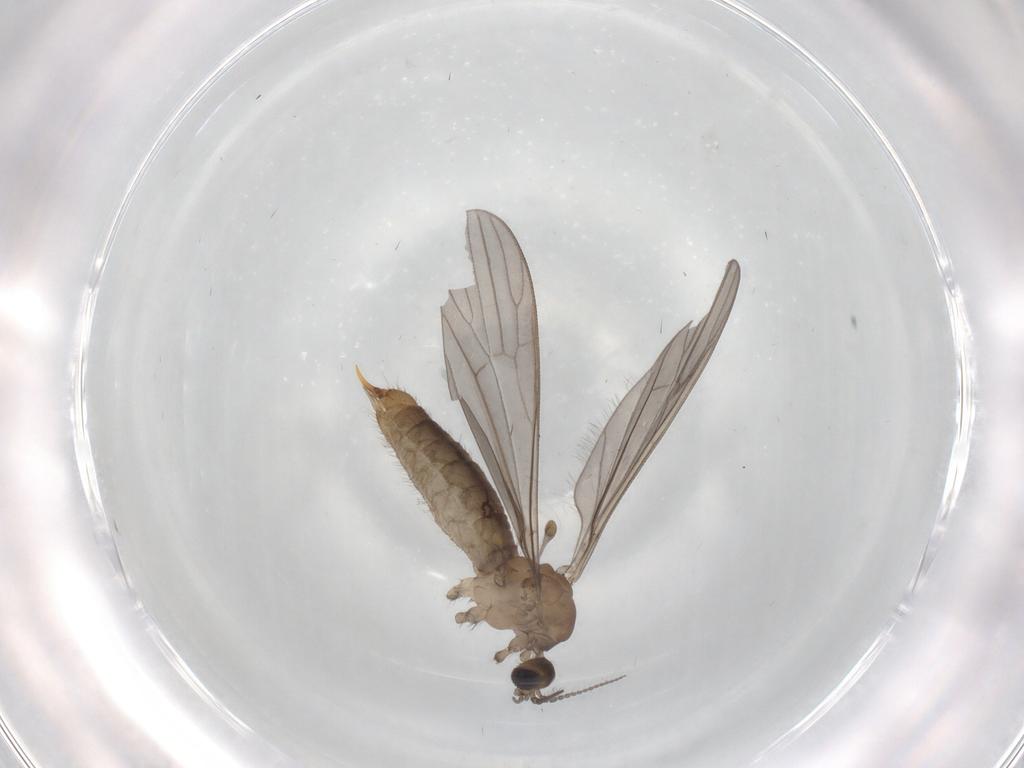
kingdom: Animalia
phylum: Arthropoda
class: Insecta
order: Diptera
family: Limoniidae
